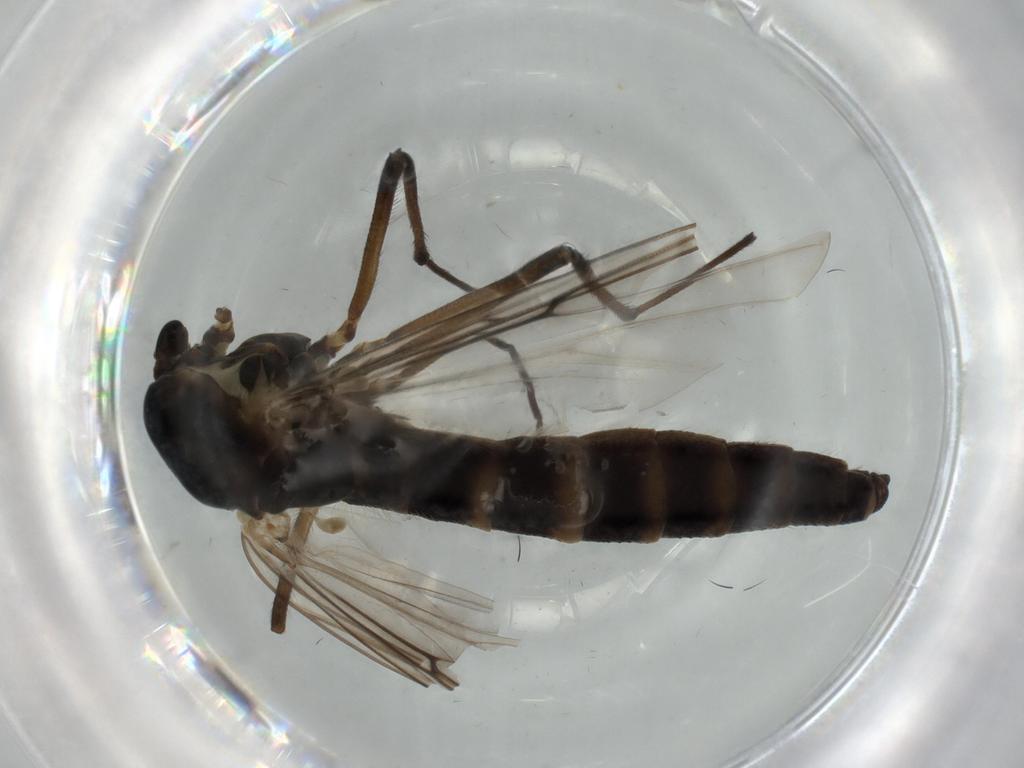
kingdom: Animalia
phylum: Arthropoda
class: Insecta
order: Diptera
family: Chironomidae
